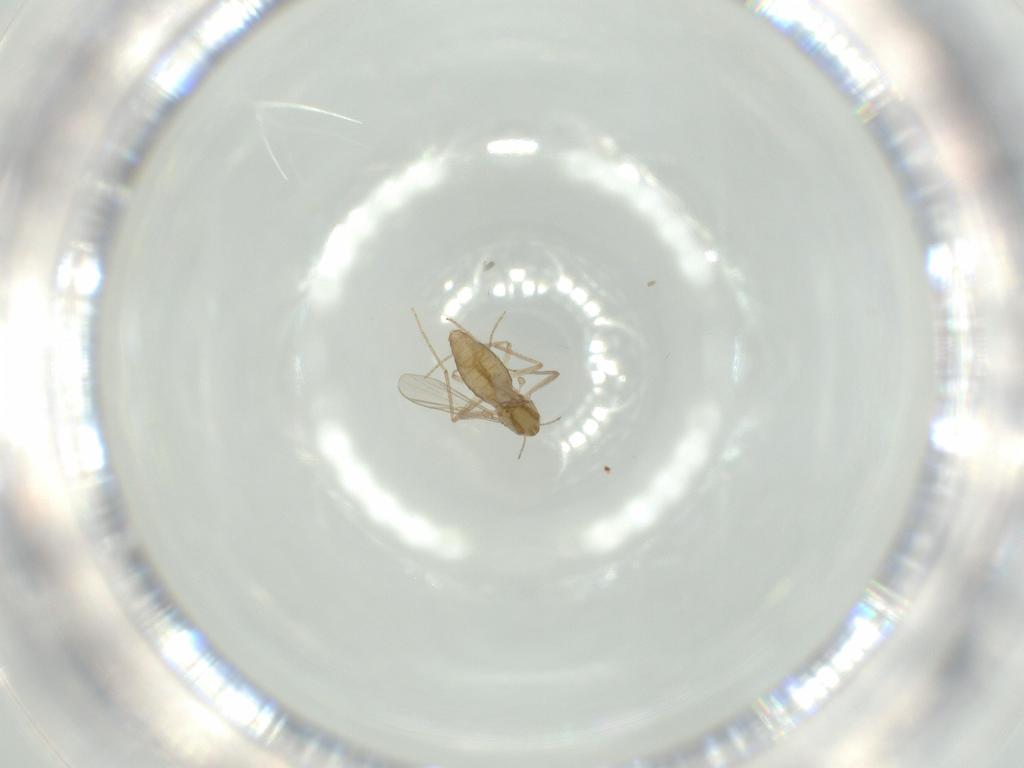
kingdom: Animalia
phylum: Arthropoda
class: Insecta
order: Diptera
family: Chironomidae
